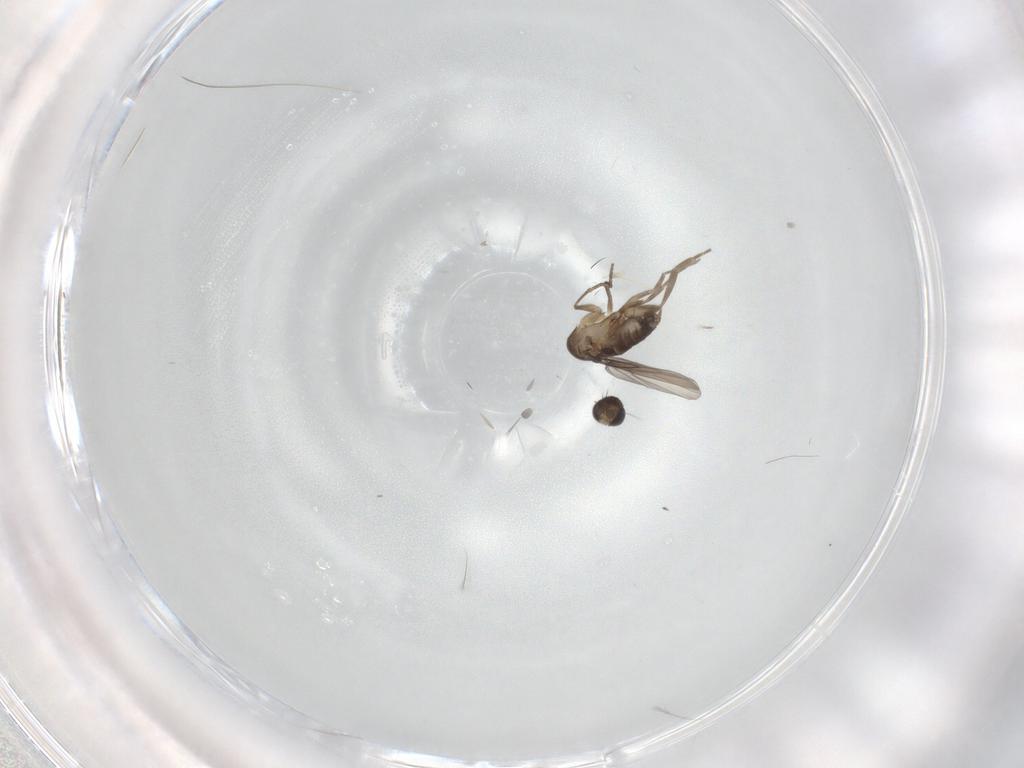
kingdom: Animalia
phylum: Arthropoda
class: Insecta
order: Diptera
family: Phoridae
